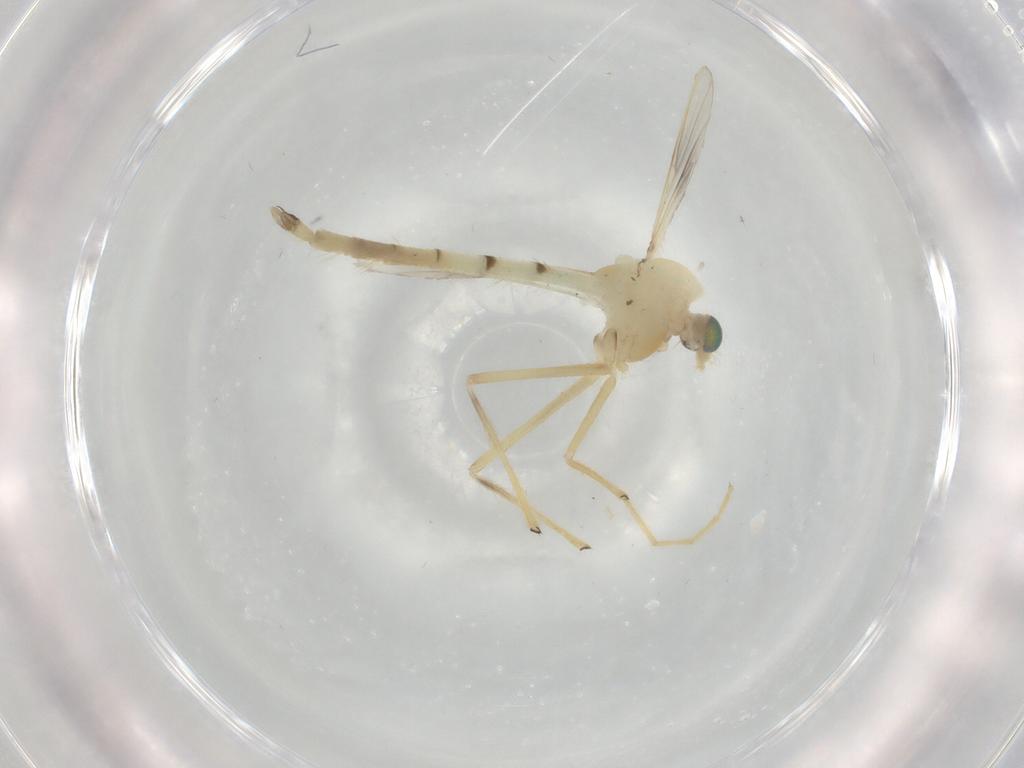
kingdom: Animalia
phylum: Arthropoda
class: Insecta
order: Diptera
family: Chironomidae
